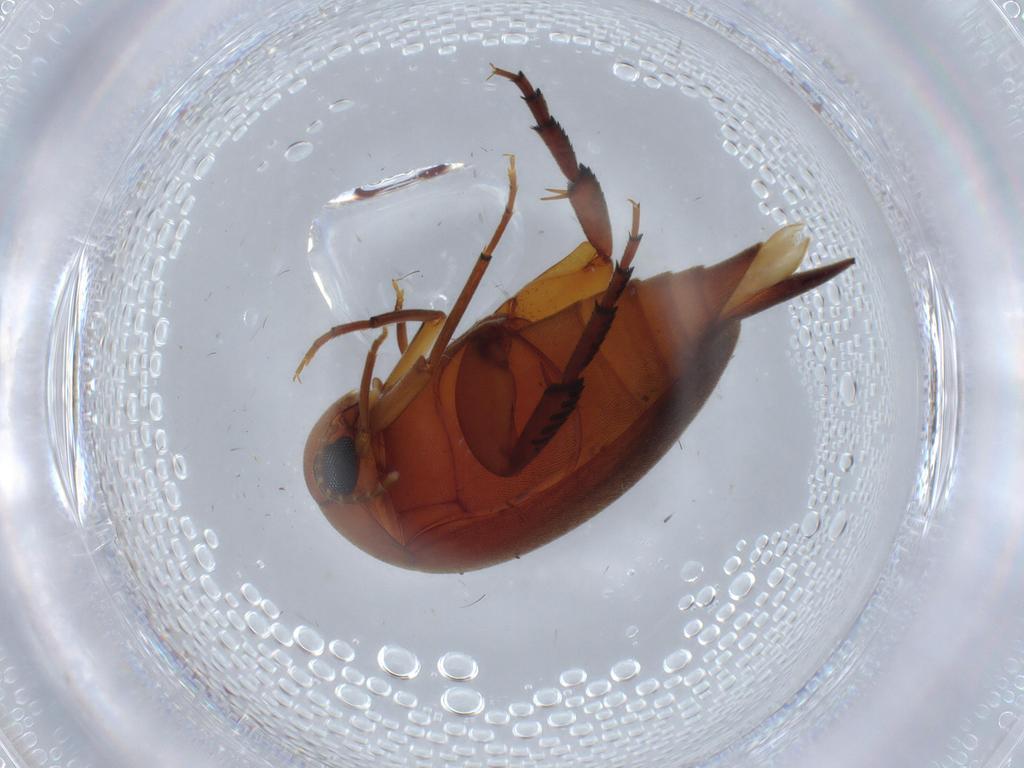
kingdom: Animalia
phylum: Arthropoda
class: Insecta
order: Coleoptera
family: Mordellidae
